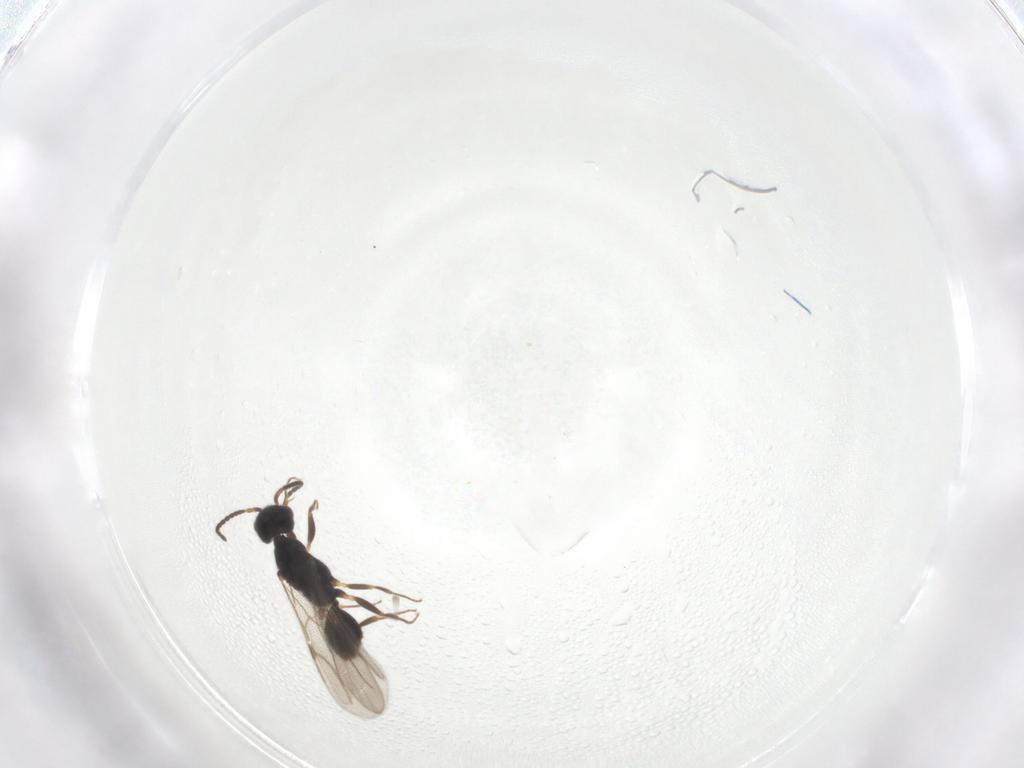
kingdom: Animalia
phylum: Arthropoda
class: Insecta
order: Hymenoptera
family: Bethylidae
